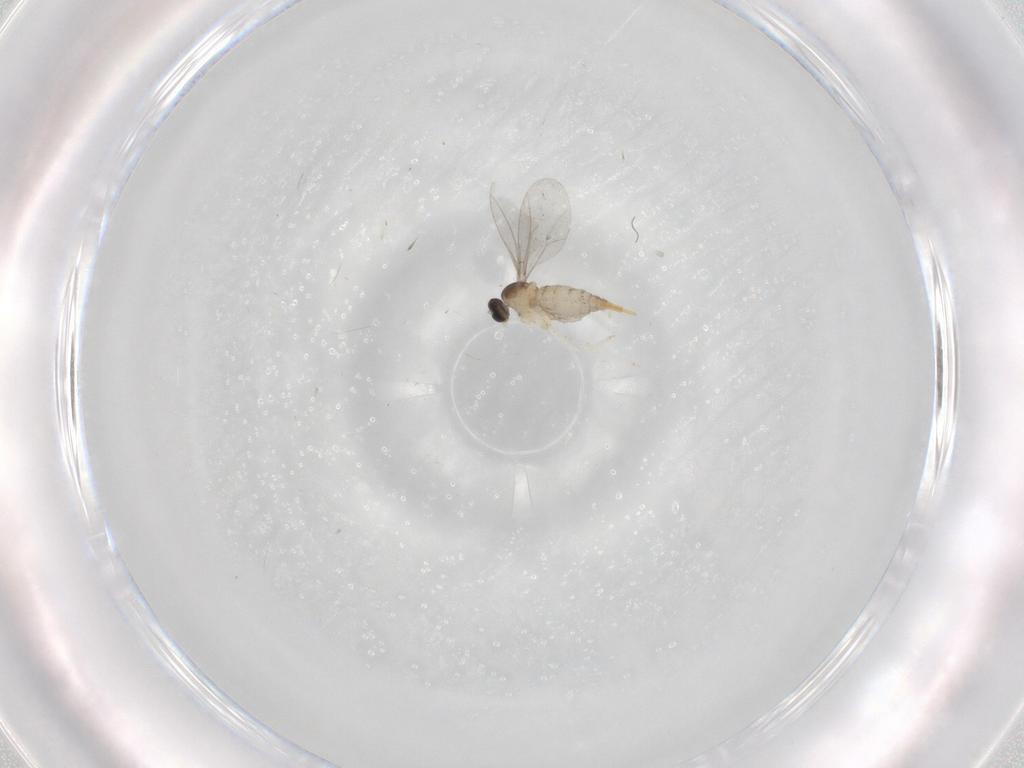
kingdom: Animalia
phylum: Arthropoda
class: Insecta
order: Diptera
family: Cecidomyiidae
